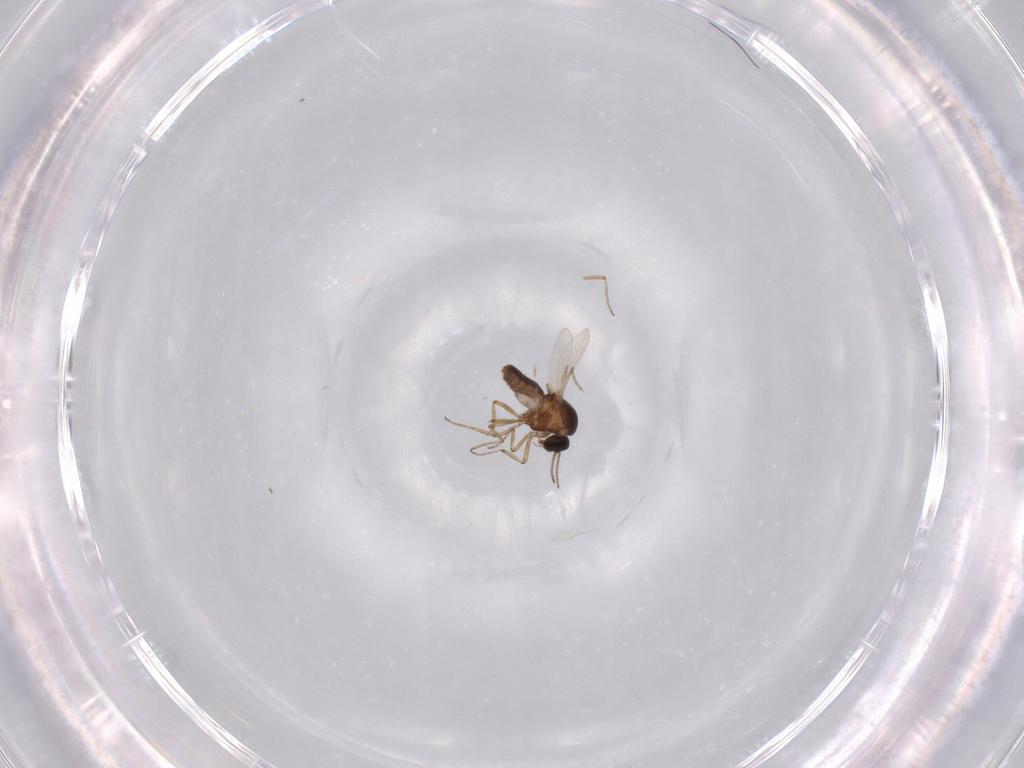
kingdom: Animalia
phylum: Arthropoda
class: Insecta
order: Diptera
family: Ceratopogonidae
